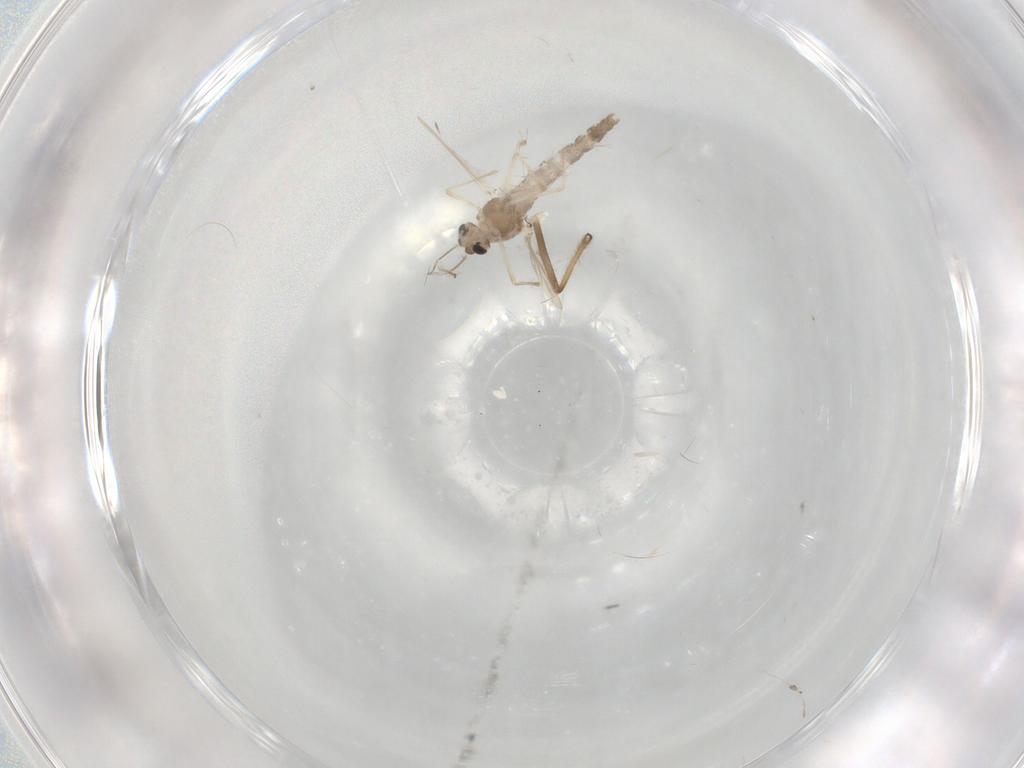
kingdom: Animalia
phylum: Arthropoda
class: Insecta
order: Diptera
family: Chironomidae
